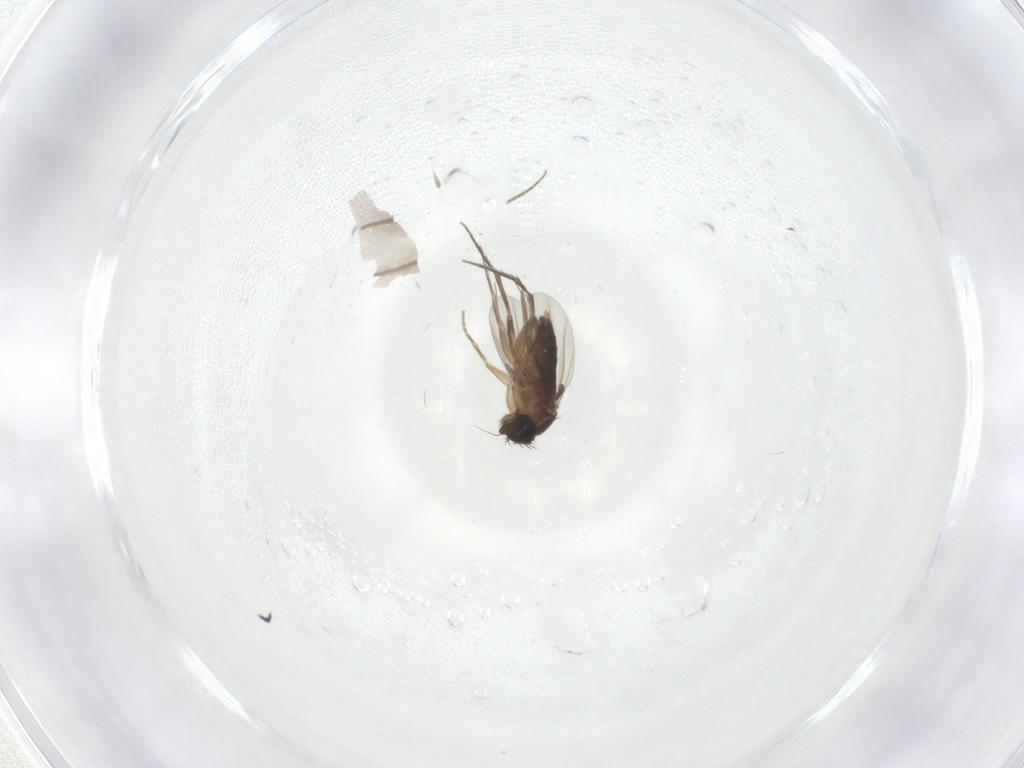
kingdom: Animalia
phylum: Arthropoda
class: Insecta
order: Diptera
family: Phoridae
